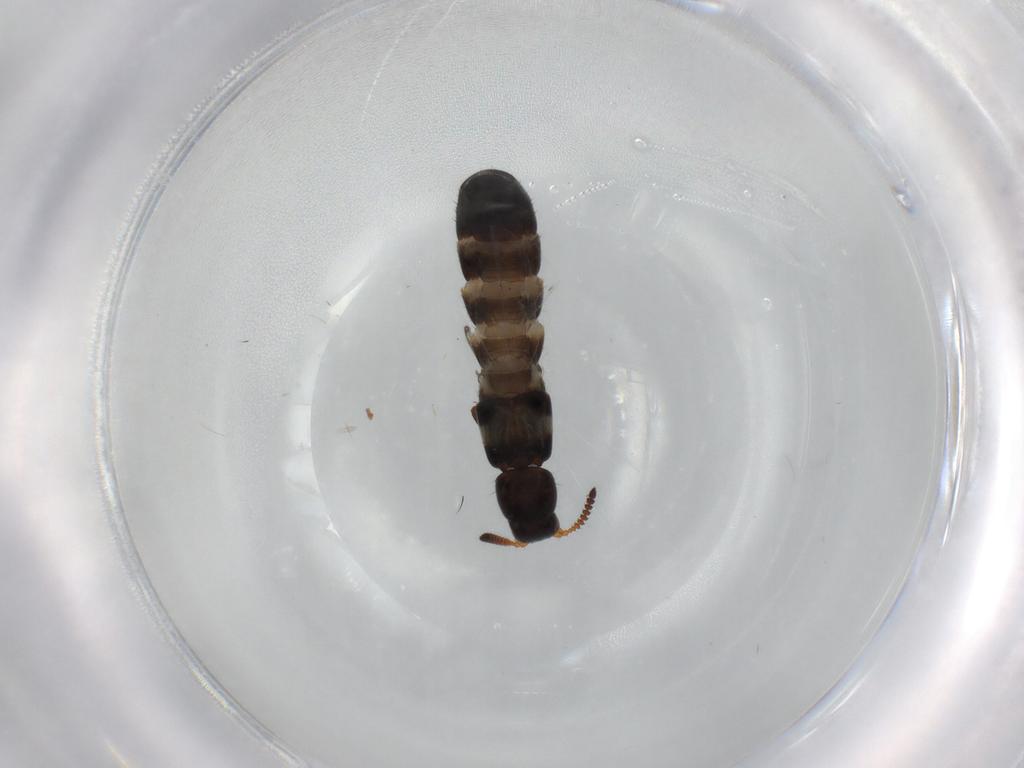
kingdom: Animalia
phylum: Arthropoda
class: Insecta
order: Coleoptera
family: Staphylinidae
